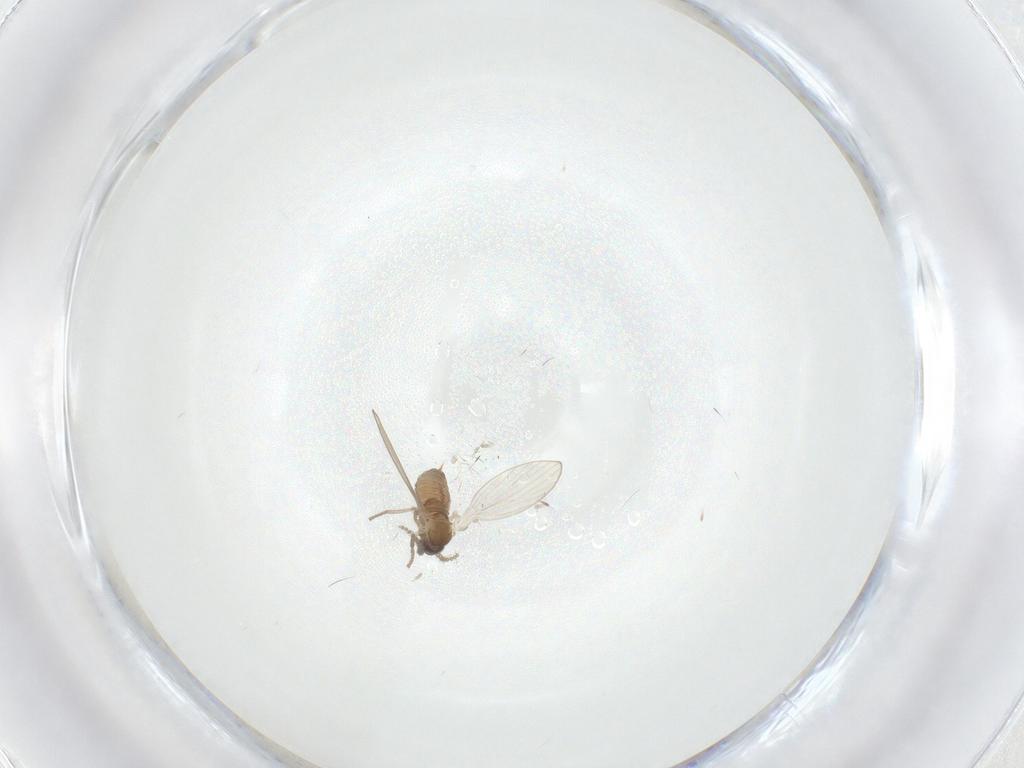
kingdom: Animalia
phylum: Arthropoda
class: Insecta
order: Diptera
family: Psychodidae
